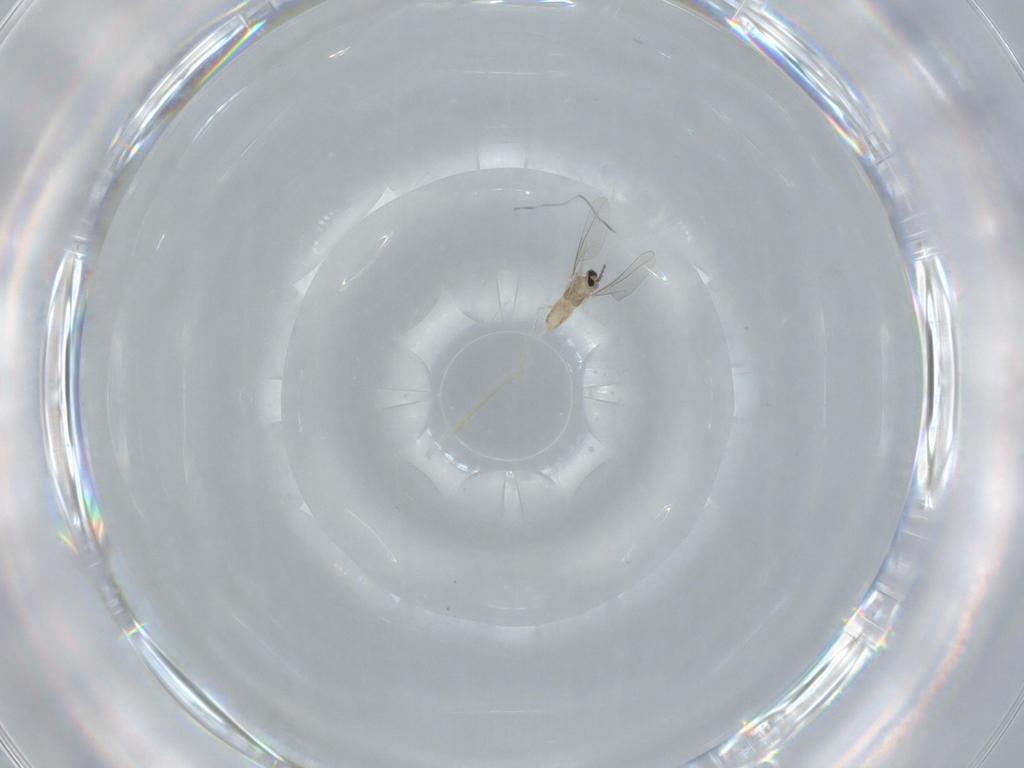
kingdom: Animalia
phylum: Arthropoda
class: Insecta
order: Diptera
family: Cecidomyiidae
